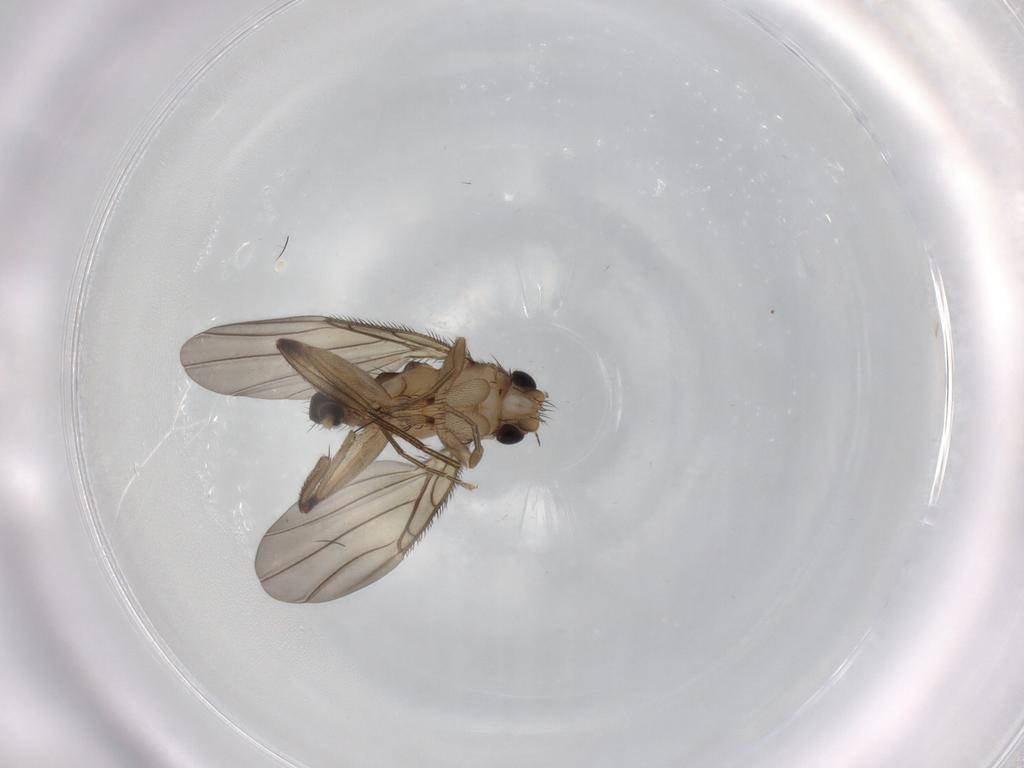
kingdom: Animalia
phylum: Arthropoda
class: Insecta
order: Diptera
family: Phoridae
